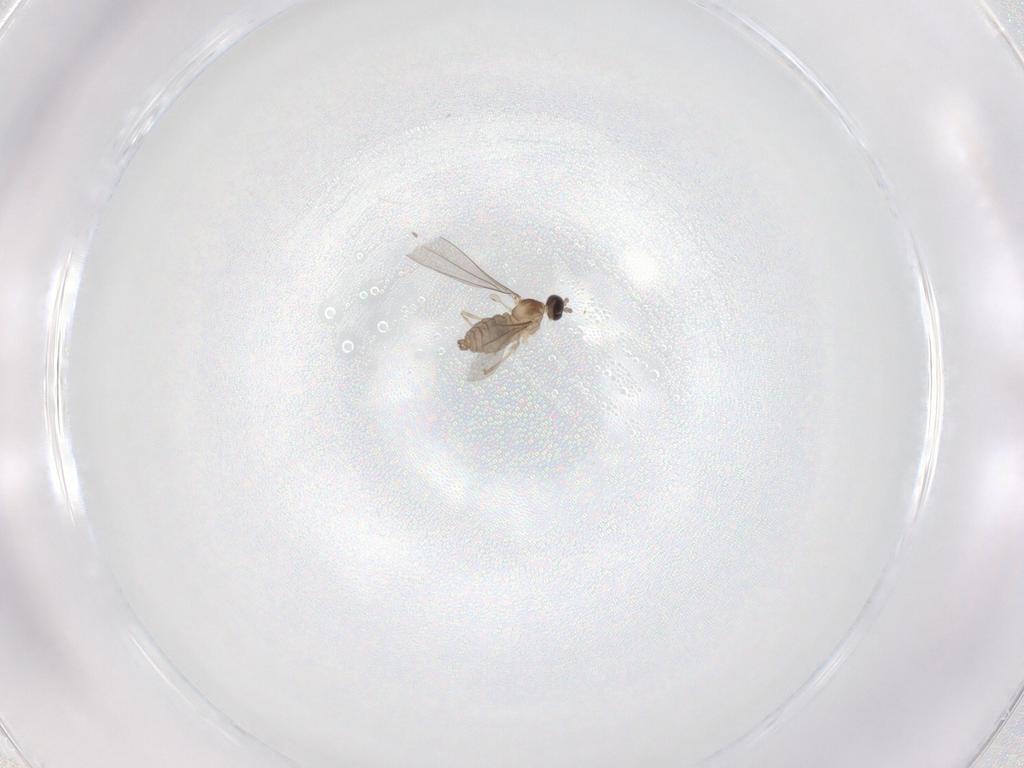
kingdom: Animalia
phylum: Arthropoda
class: Insecta
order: Diptera
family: Cecidomyiidae
